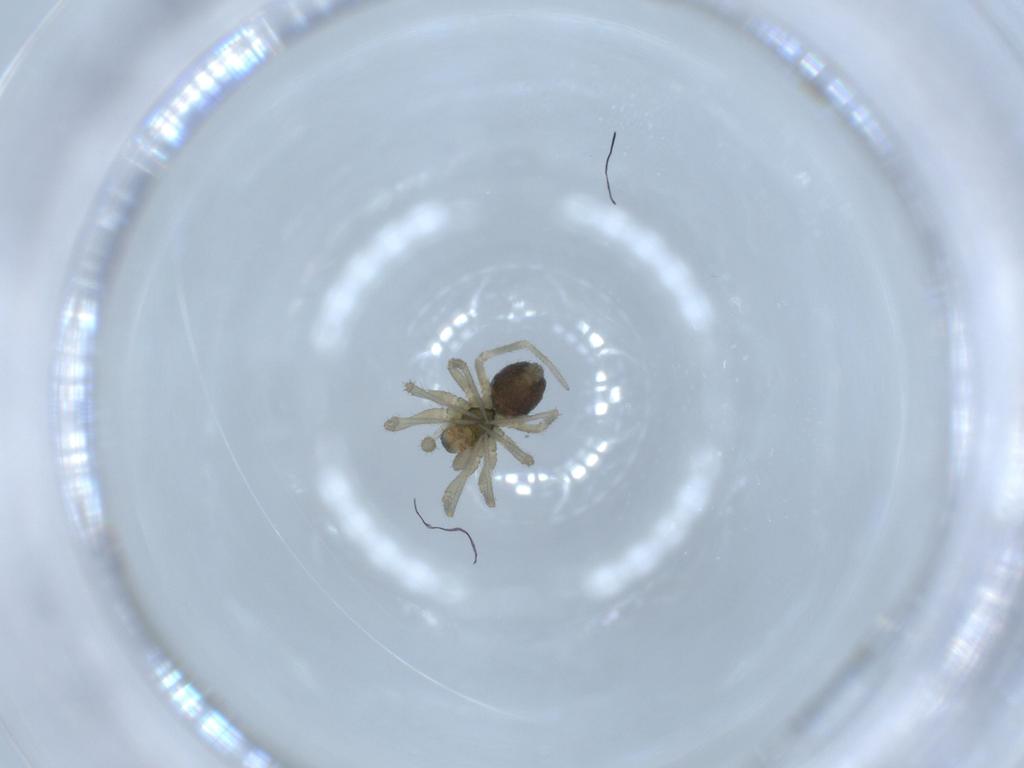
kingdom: Animalia
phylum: Arthropoda
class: Arachnida
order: Araneae
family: Linyphiidae
